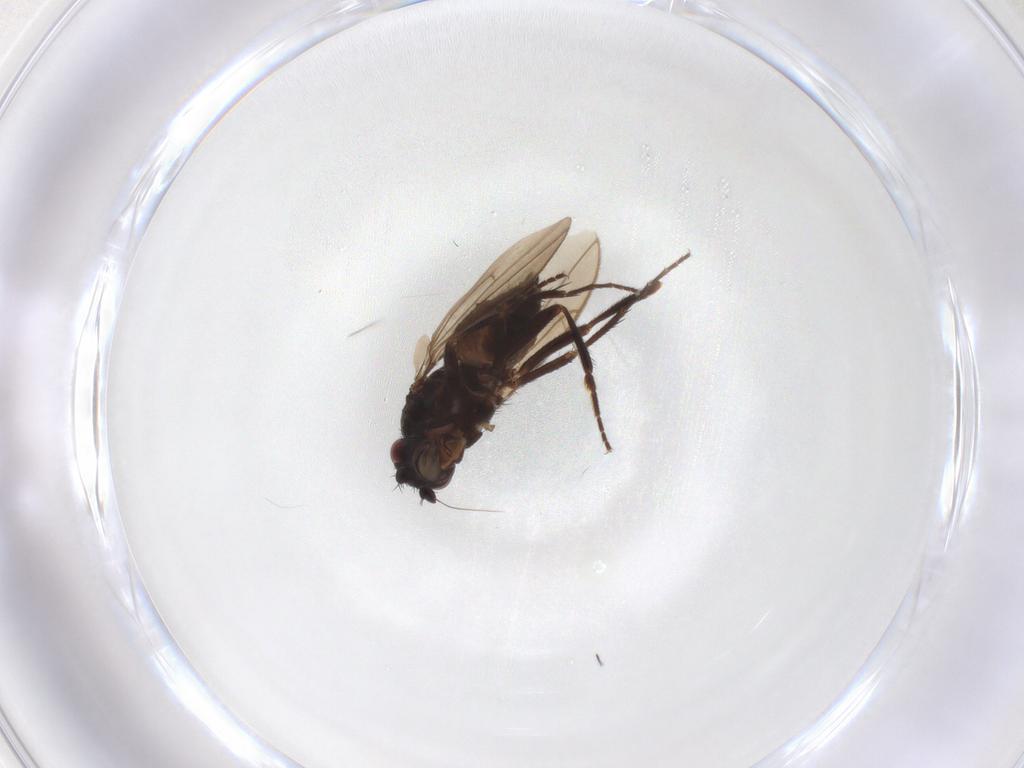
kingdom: Animalia
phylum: Arthropoda
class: Insecta
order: Diptera
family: Sphaeroceridae
